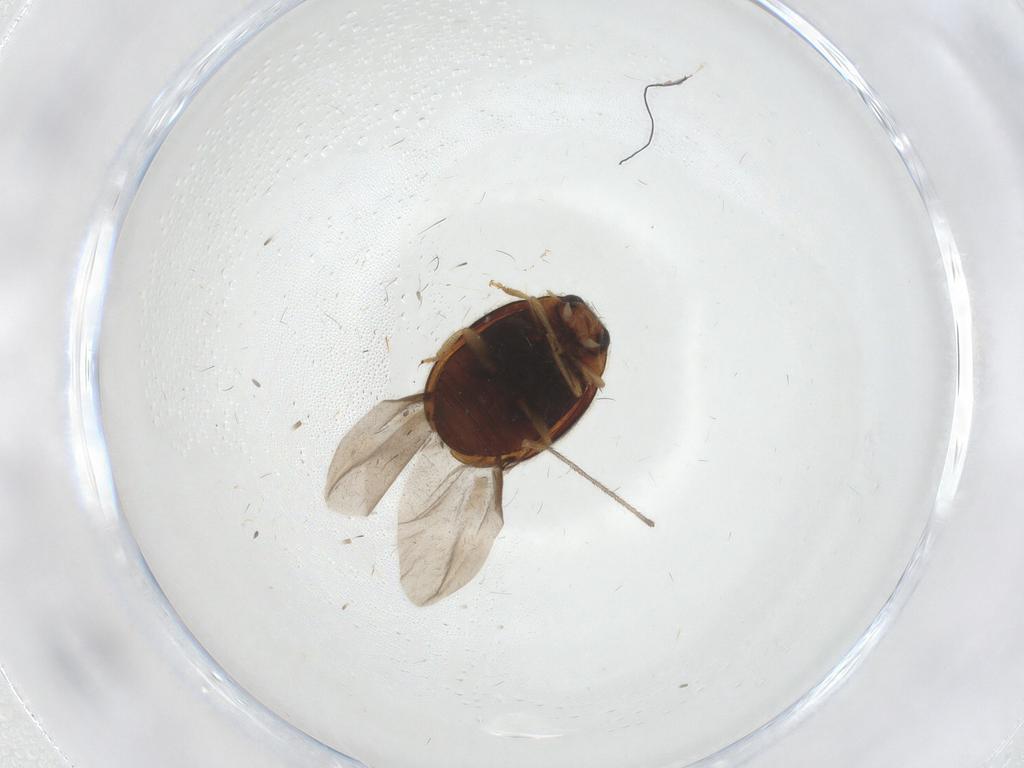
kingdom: Animalia
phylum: Arthropoda
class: Insecta
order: Coleoptera
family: Coccinellidae
